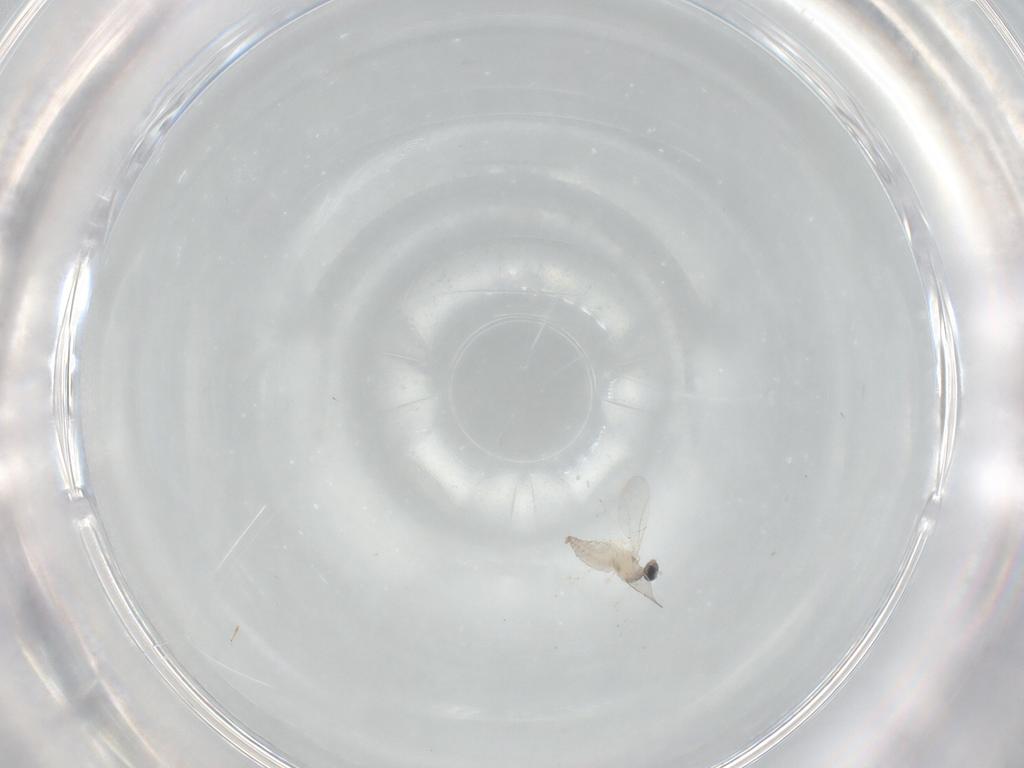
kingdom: Animalia
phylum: Arthropoda
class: Insecta
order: Diptera
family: Cecidomyiidae
